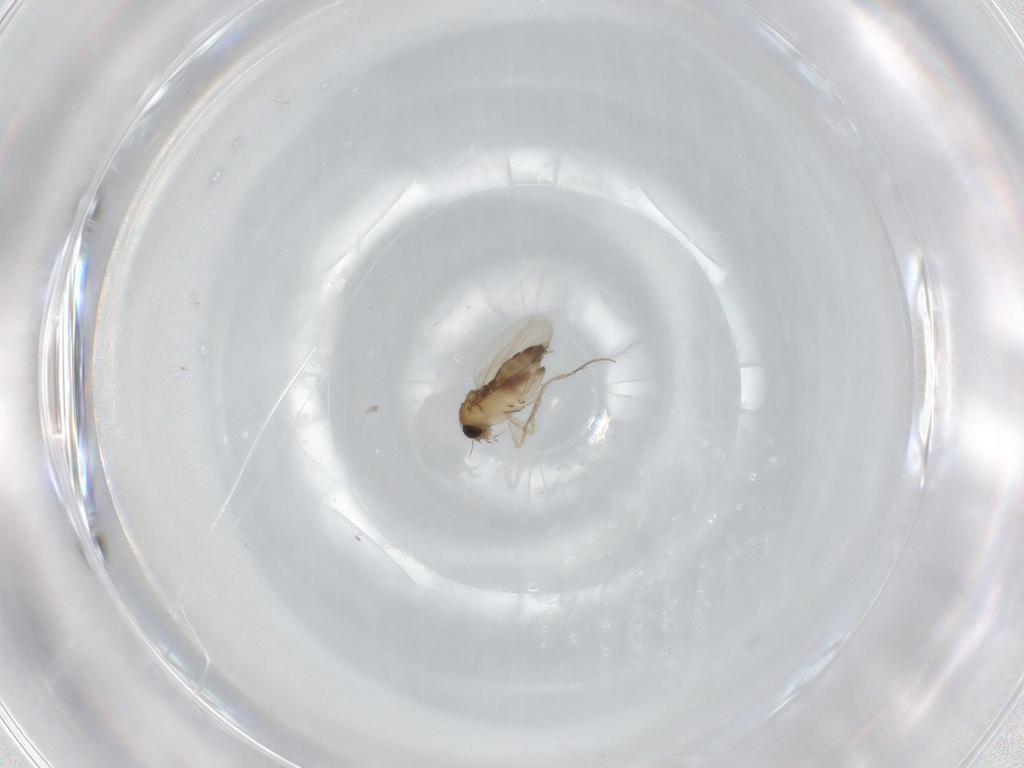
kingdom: Animalia
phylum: Arthropoda
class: Insecta
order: Diptera
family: Phoridae
